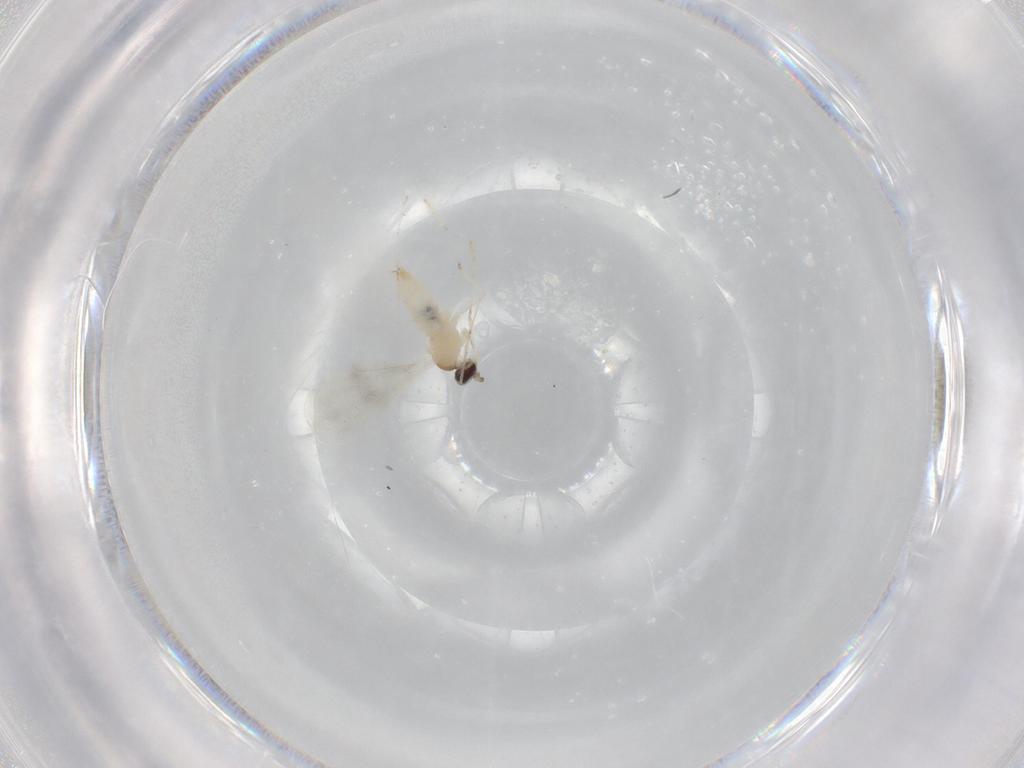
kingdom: Animalia
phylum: Arthropoda
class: Insecta
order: Diptera
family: Cecidomyiidae
